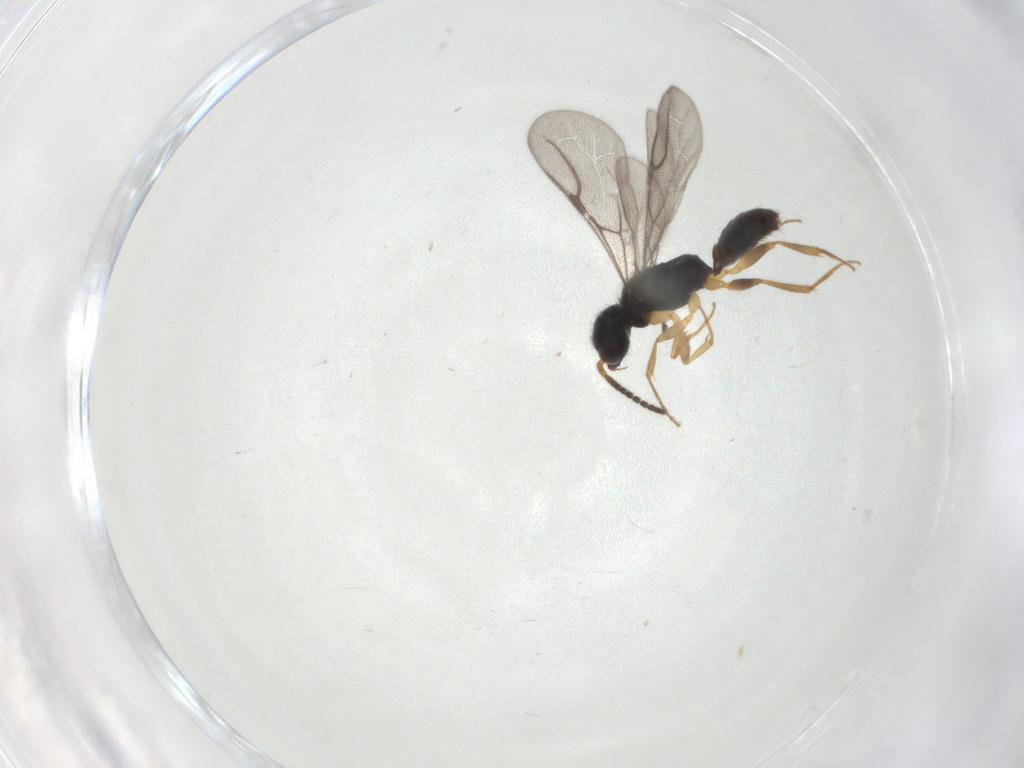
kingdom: Animalia
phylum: Arthropoda
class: Insecta
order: Hymenoptera
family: Bethylidae
